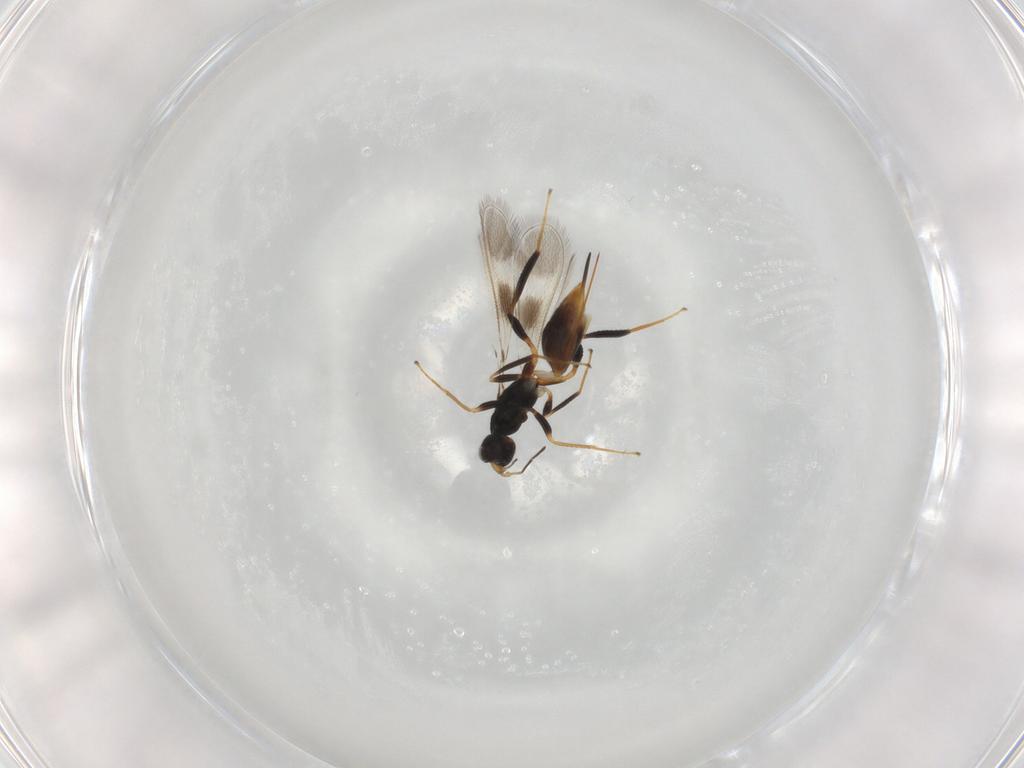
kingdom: Animalia
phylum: Arthropoda
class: Insecta
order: Hymenoptera
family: Mymaridae
